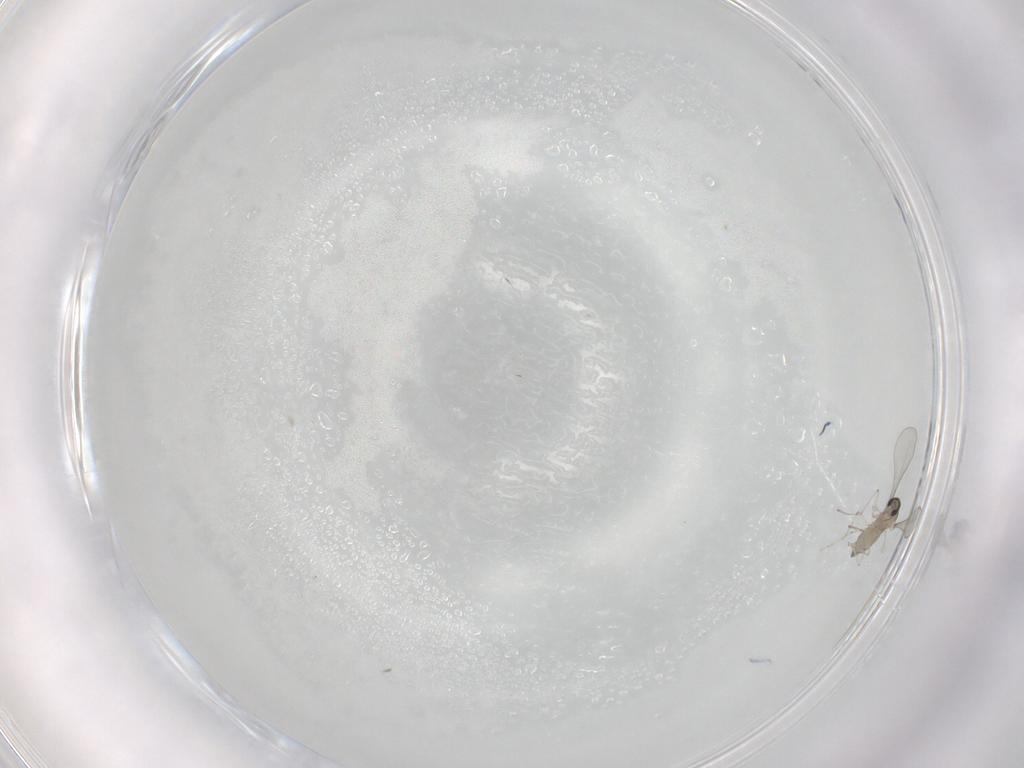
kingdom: Animalia
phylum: Arthropoda
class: Insecta
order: Diptera
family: Cecidomyiidae
